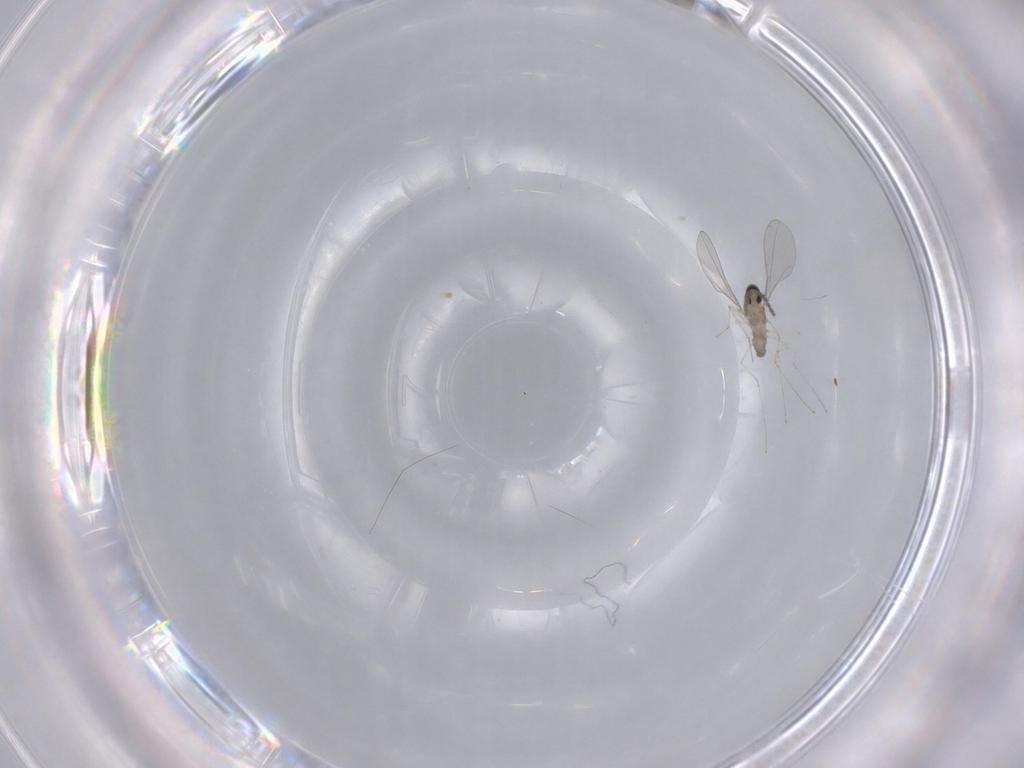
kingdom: Animalia
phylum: Arthropoda
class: Insecta
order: Diptera
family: Cecidomyiidae
